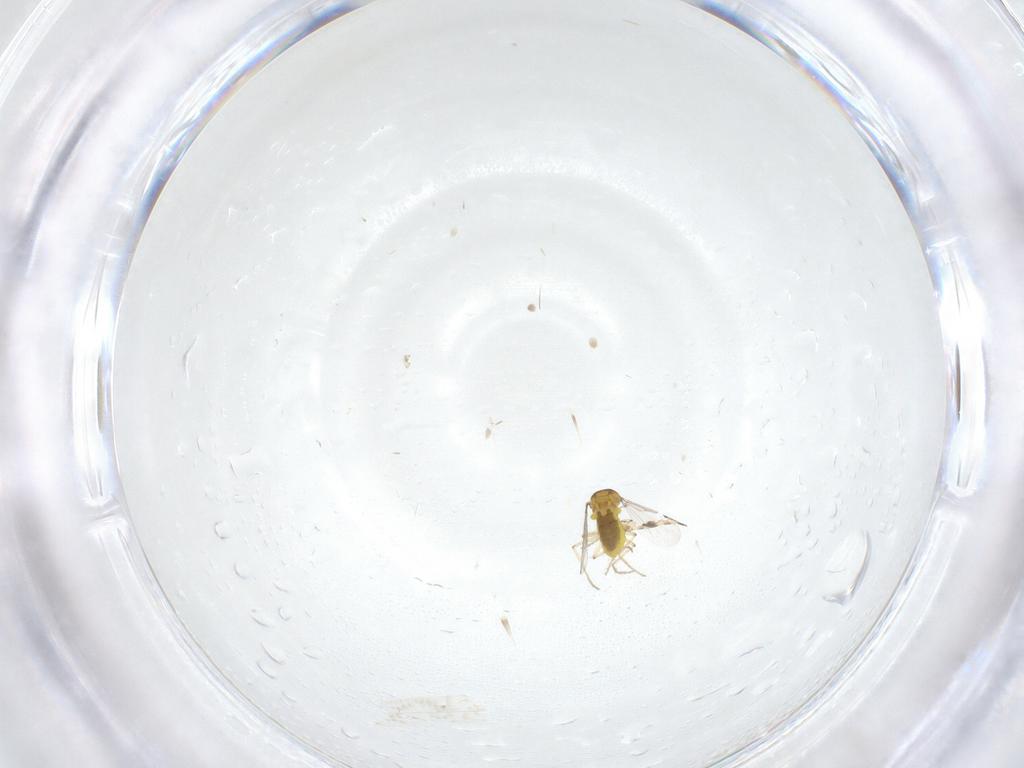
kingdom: Animalia
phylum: Arthropoda
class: Insecta
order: Diptera
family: Ceratopogonidae
